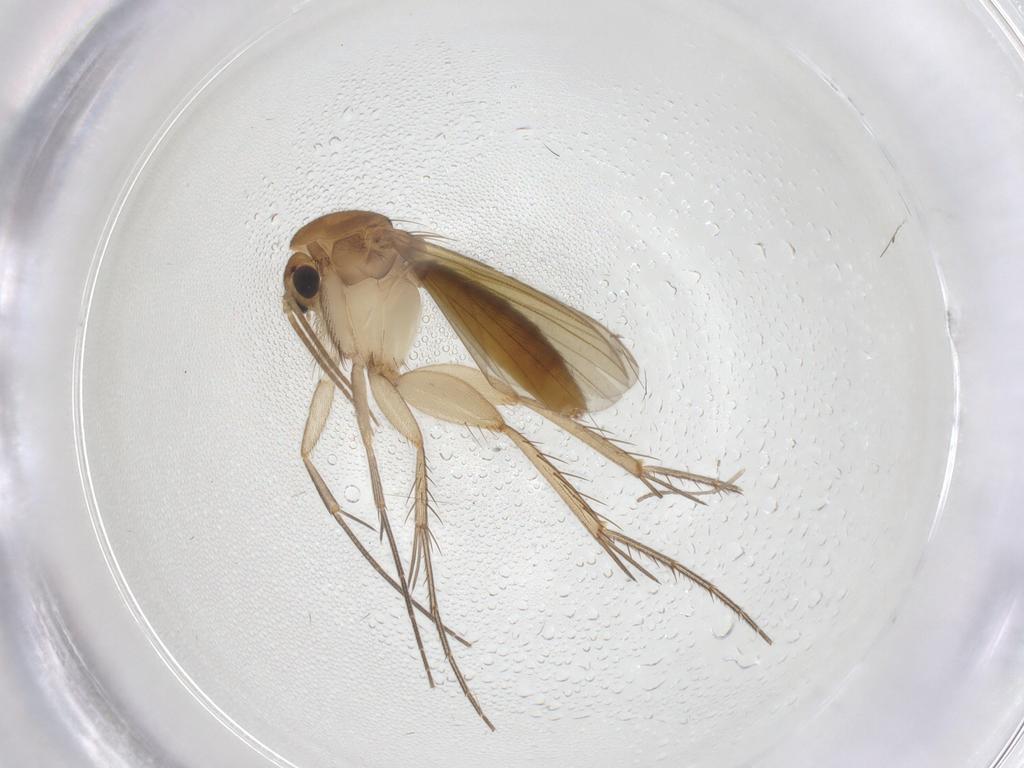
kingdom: Animalia
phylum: Arthropoda
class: Insecta
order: Diptera
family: Mycetophilidae
